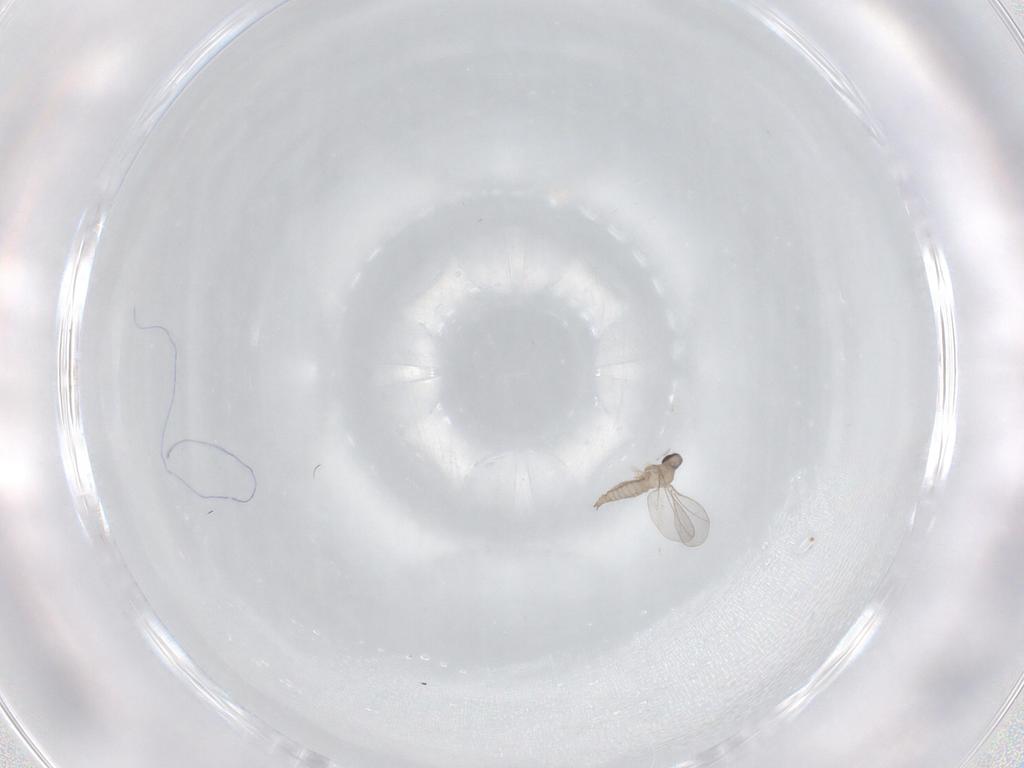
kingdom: Animalia
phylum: Arthropoda
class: Insecta
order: Diptera
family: Cecidomyiidae
